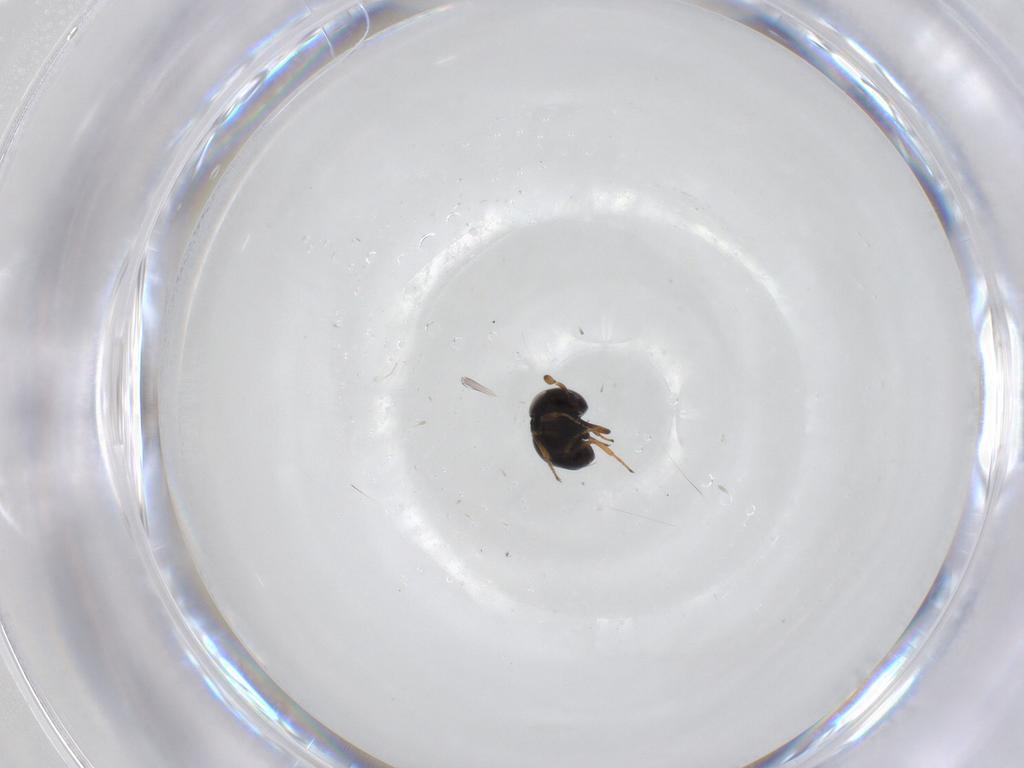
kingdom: Animalia
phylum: Arthropoda
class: Insecta
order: Hymenoptera
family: Scelionidae
